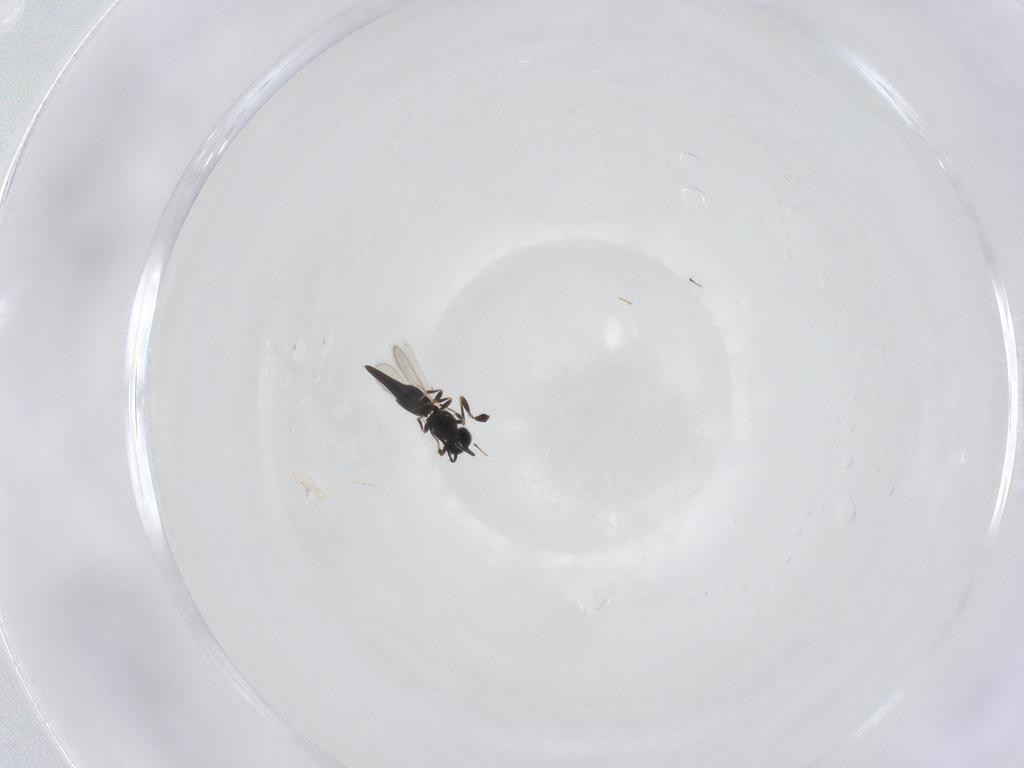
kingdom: Animalia
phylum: Arthropoda
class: Insecta
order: Hymenoptera
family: Scelionidae
